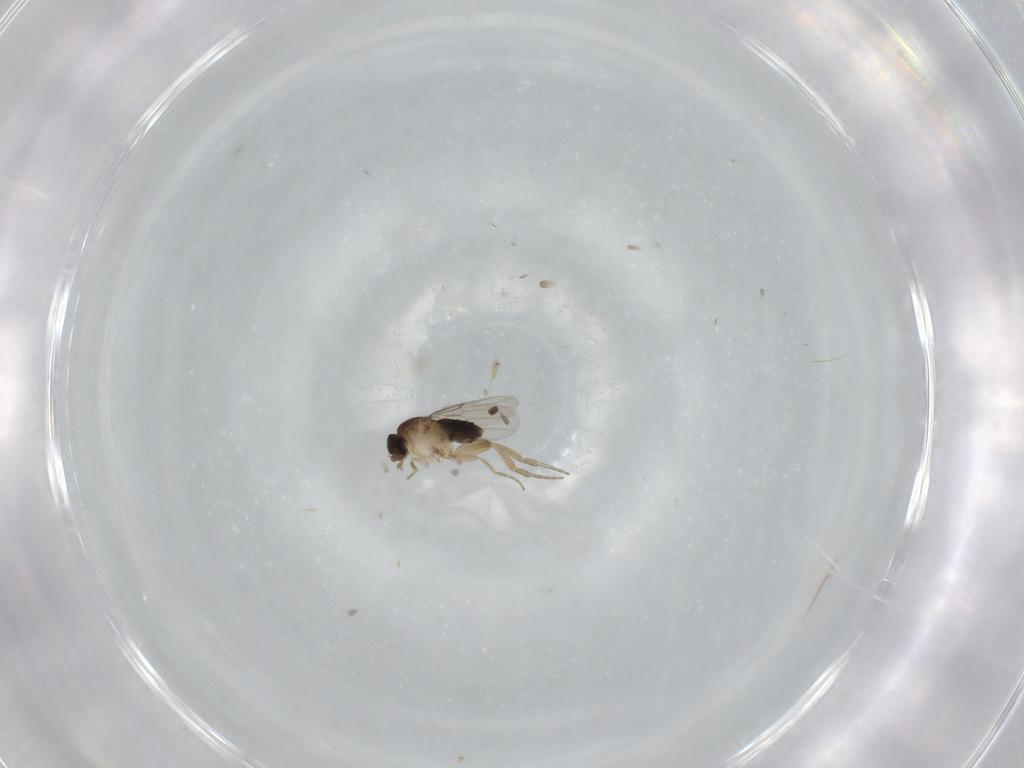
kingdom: Animalia
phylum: Arthropoda
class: Insecta
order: Diptera
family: Phoridae
